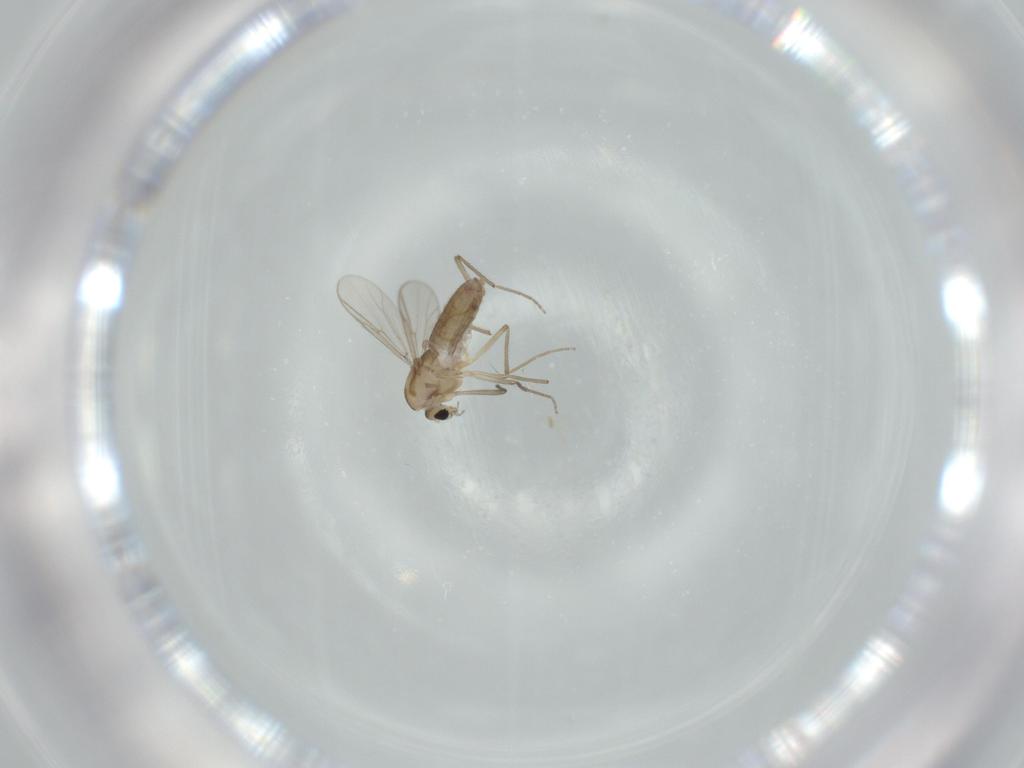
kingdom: Animalia
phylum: Arthropoda
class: Insecta
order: Diptera
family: Chironomidae
